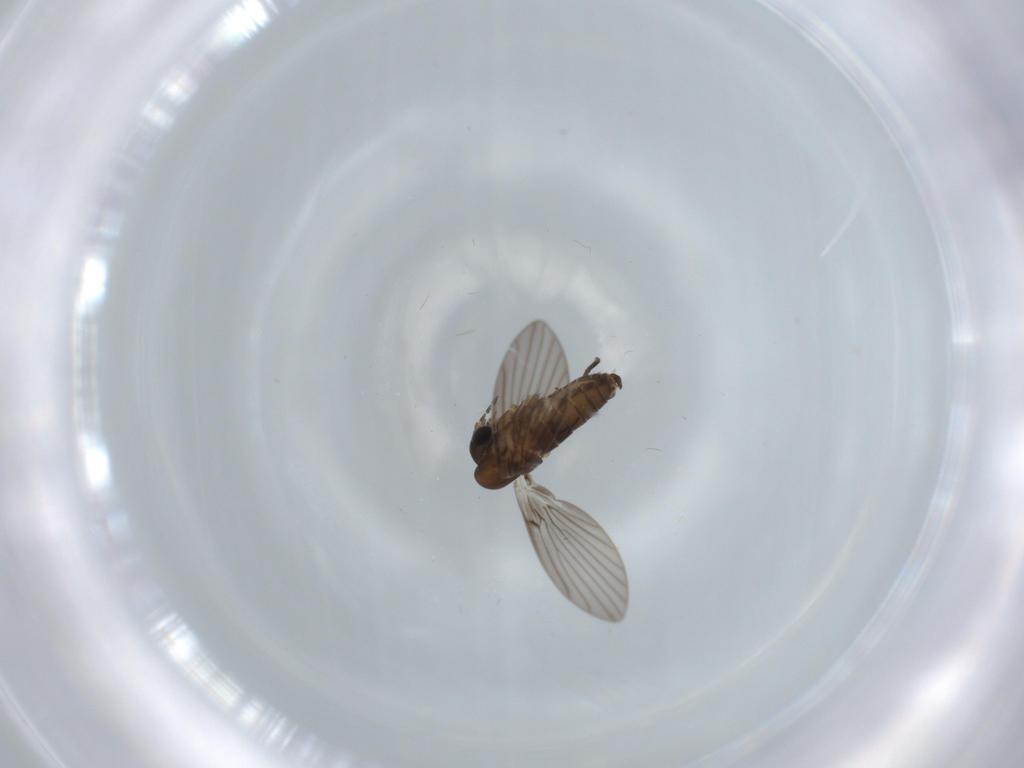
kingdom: Animalia
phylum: Arthropoda
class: Insecta
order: Diptera
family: Psychodidae
